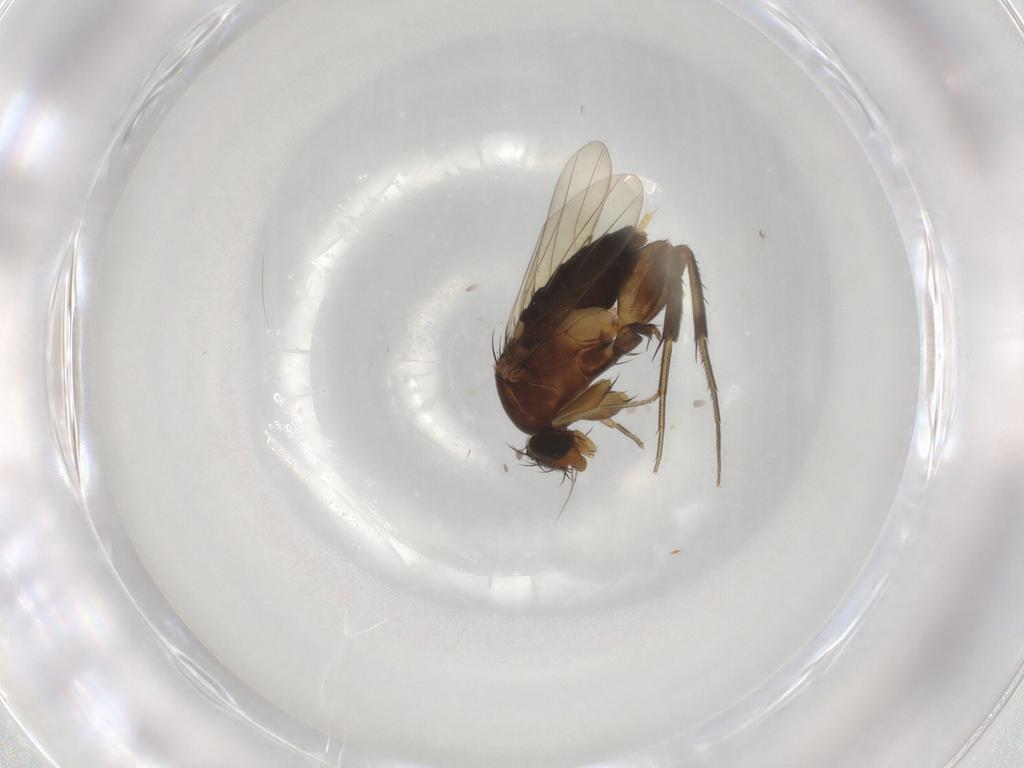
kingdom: Animalia
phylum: Arthropoda
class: Insecta
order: Diptera
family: Phoridae
